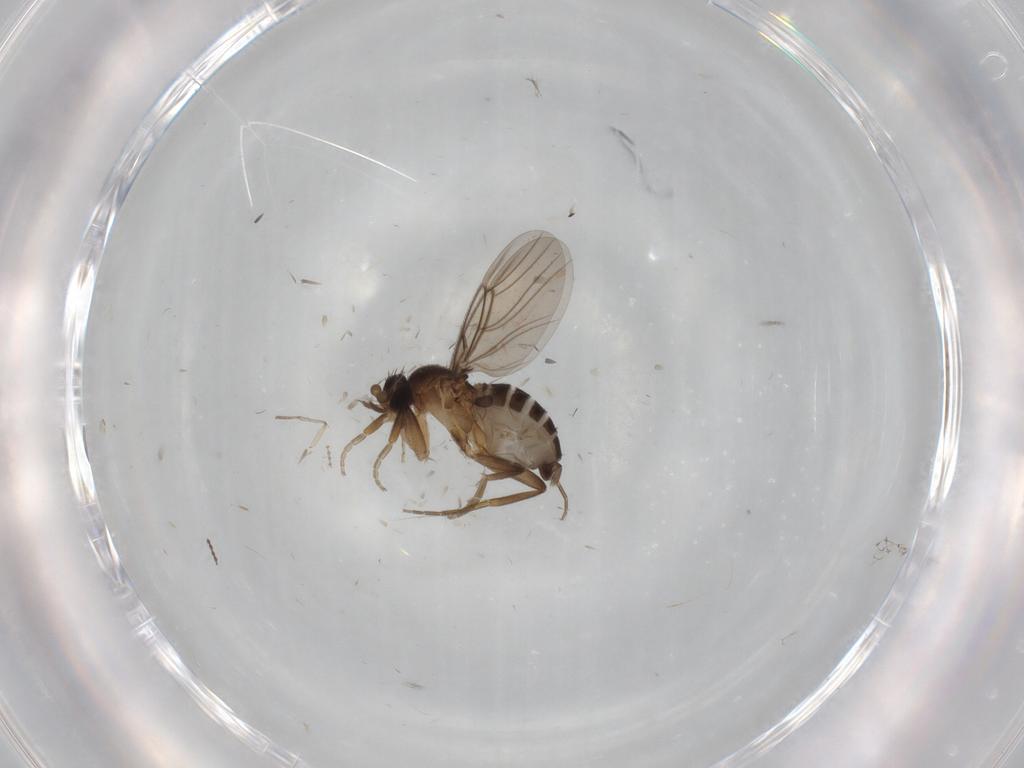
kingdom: Animalia
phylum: Arthropoda
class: Insecta
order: Diptera
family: Phoridae
